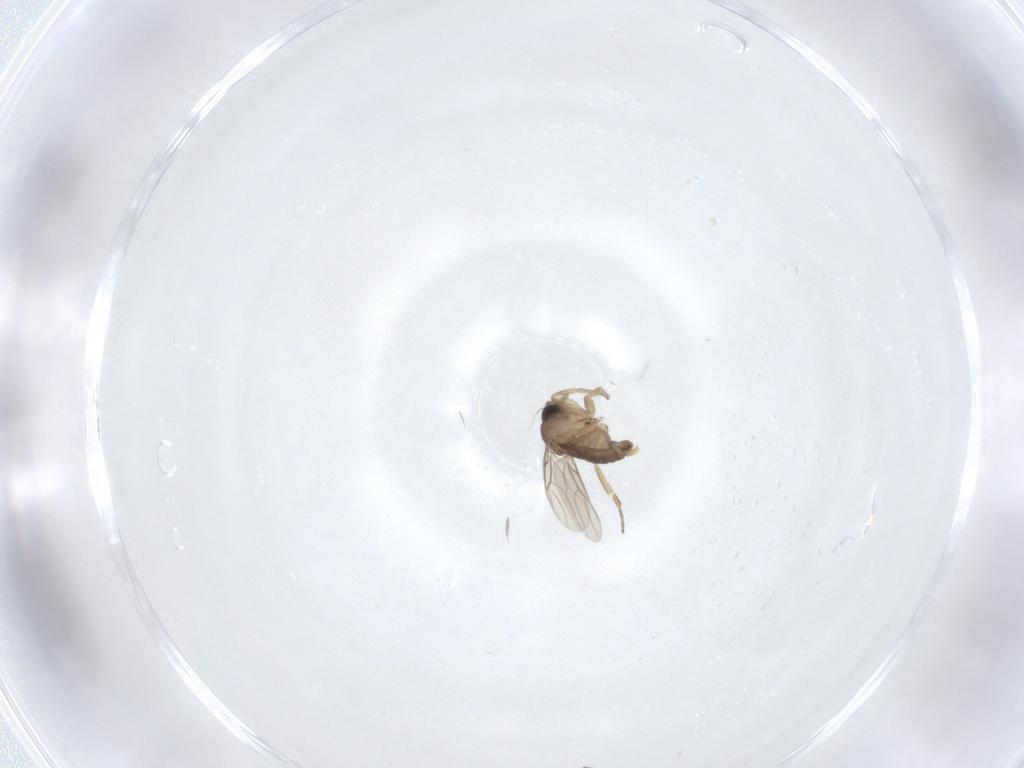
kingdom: Animalia
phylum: Arthropoda
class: Insecta
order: Diptera
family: Phoridae
